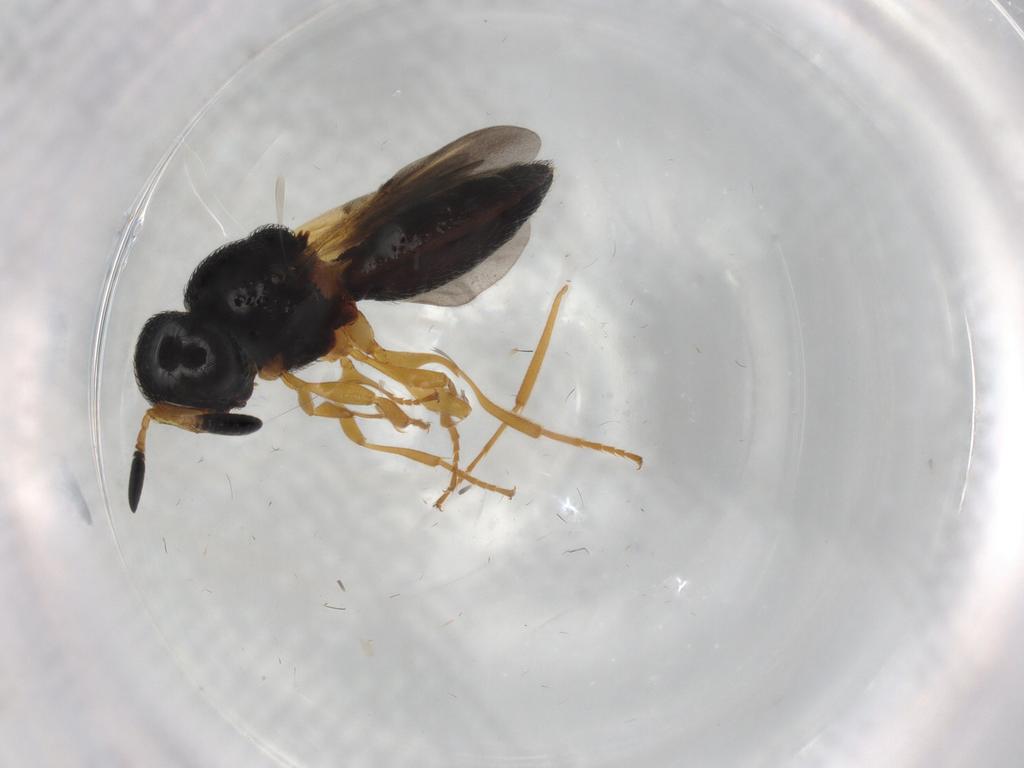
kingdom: Animalia
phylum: Arthropoda
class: Insecta
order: Hymenoptera
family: Scelionidae
